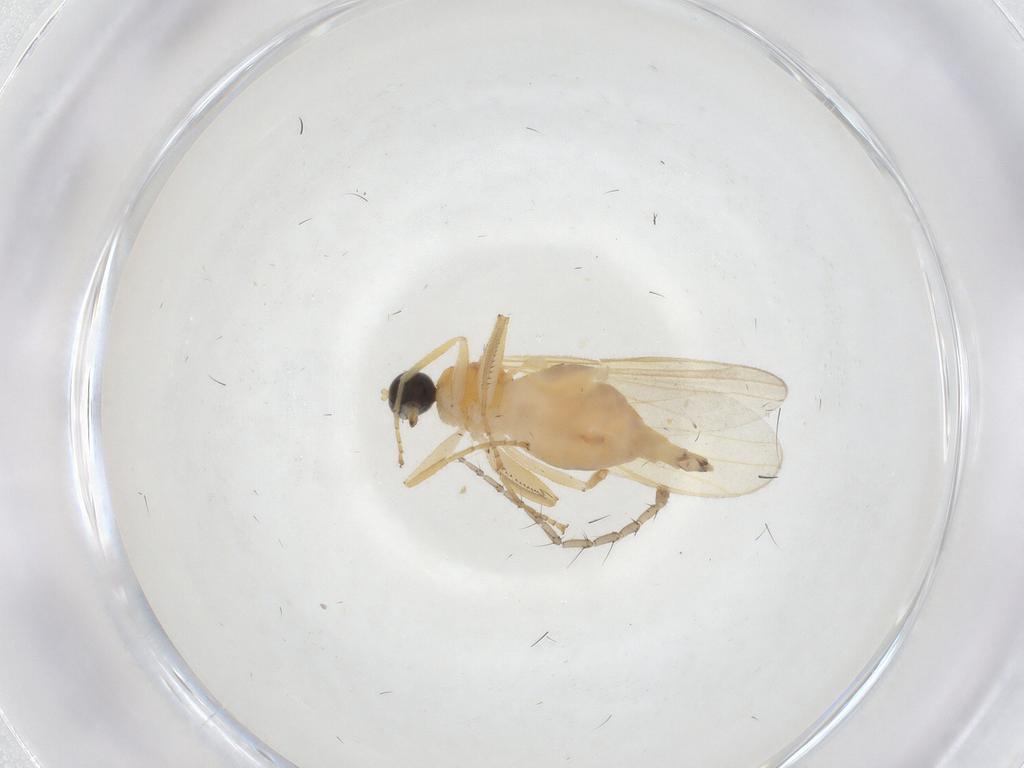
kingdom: Animalia
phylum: Arthropoda
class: Insecta
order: Diptera
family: Hybotidae
